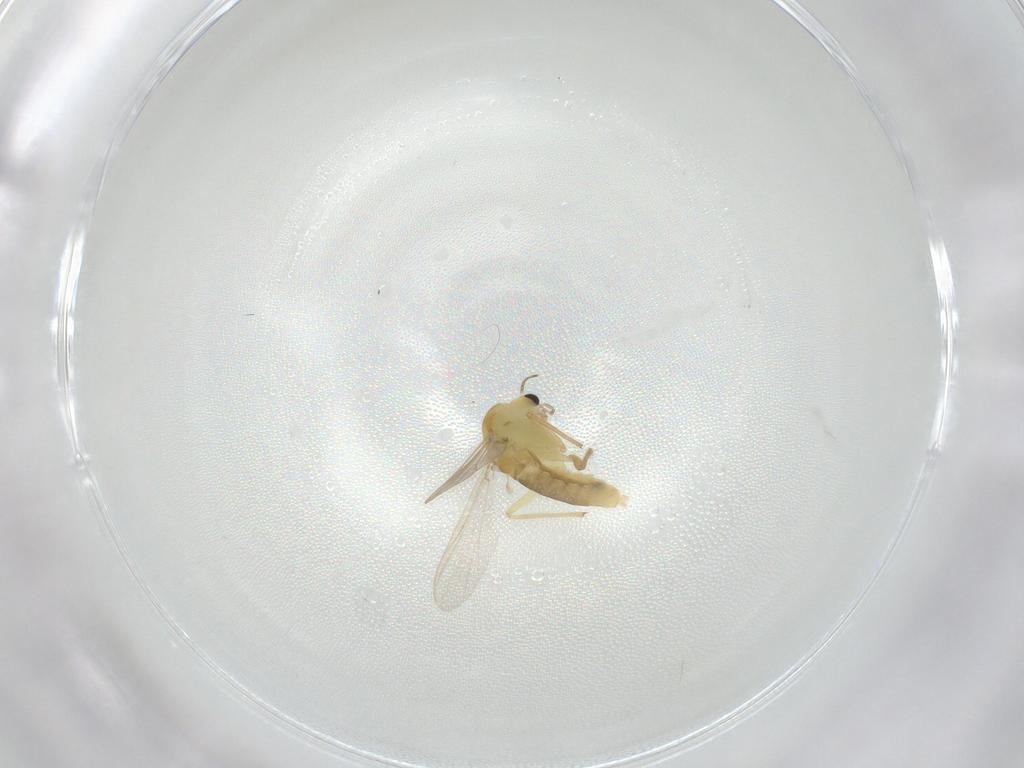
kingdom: Animalia
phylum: Arthropoda
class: Insecta
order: Diptera
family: Chironomidae
